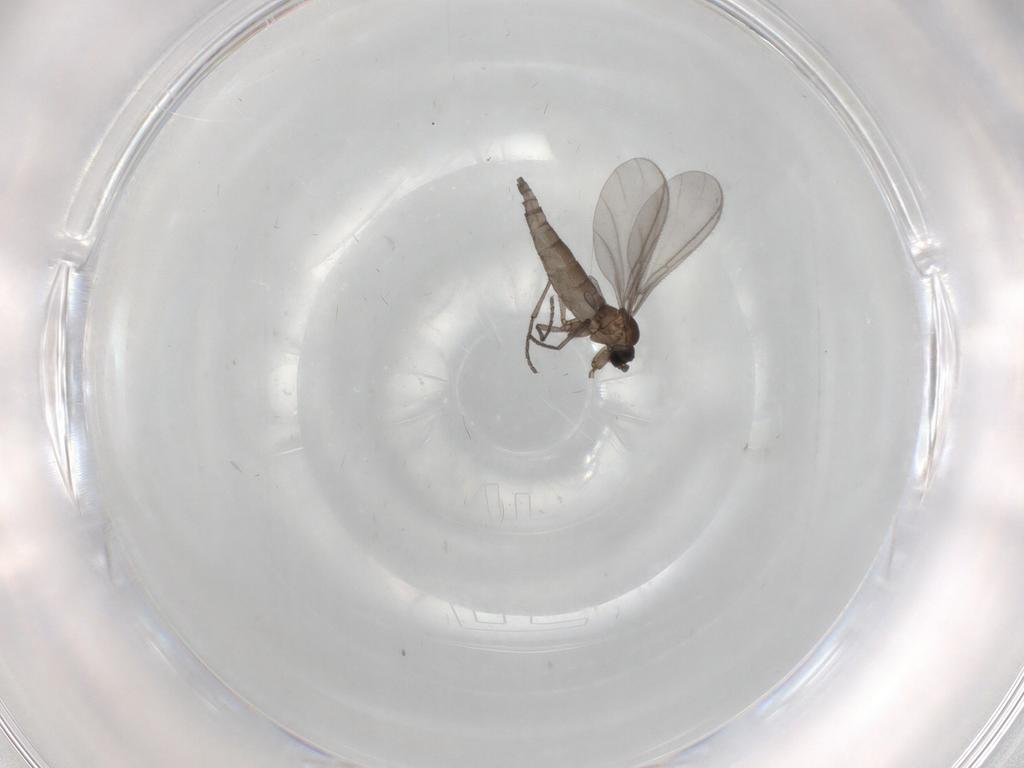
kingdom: Animalia
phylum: Arthropoda
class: Insecta
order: Diptera
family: Sciaridae
